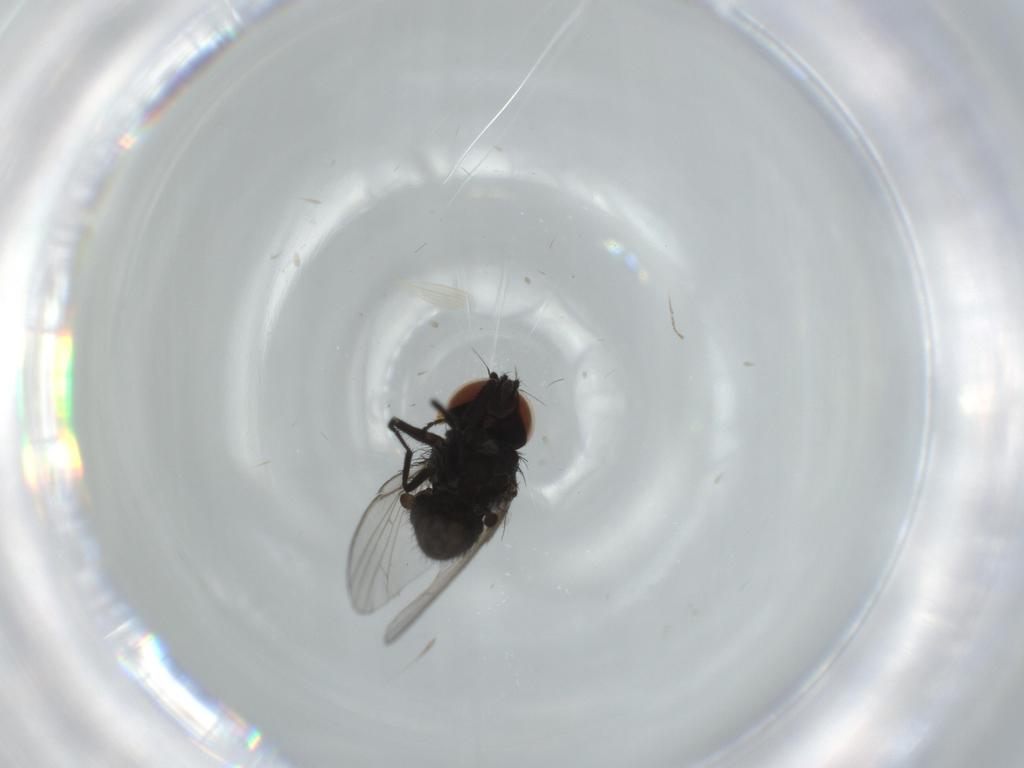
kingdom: Animalia
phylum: Arthropoda
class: Insecta
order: Diptera
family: Milichiidae
